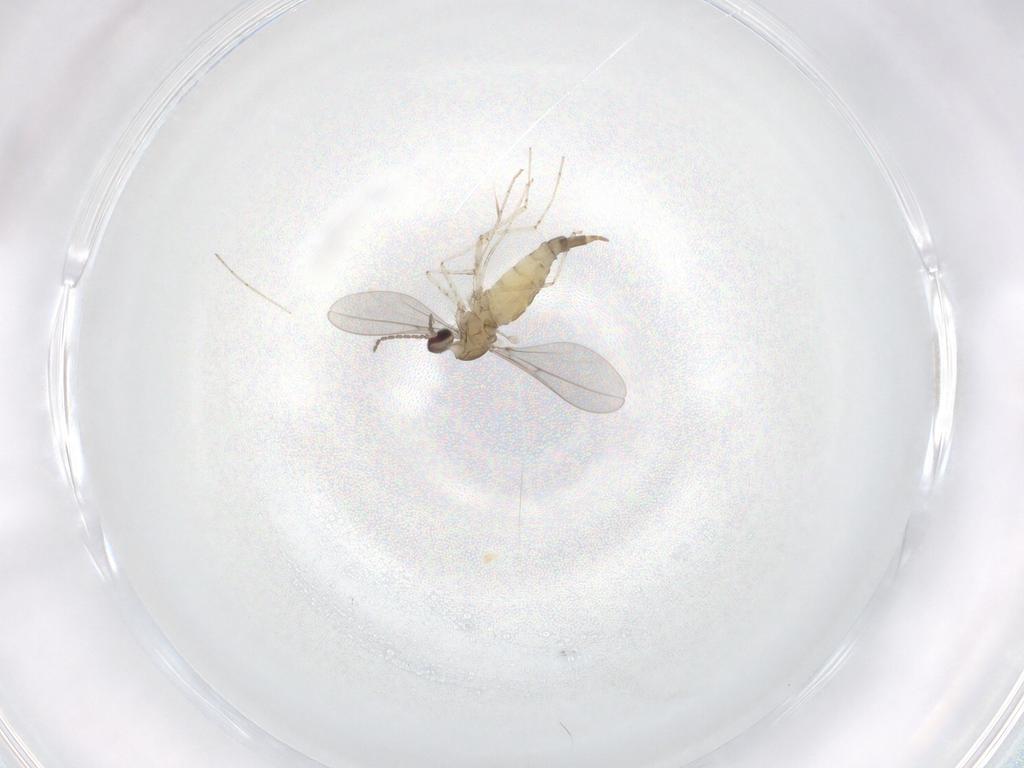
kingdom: Animalia
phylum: Arthropoda
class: Insecta
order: Diptera
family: Cecidomyiidae
